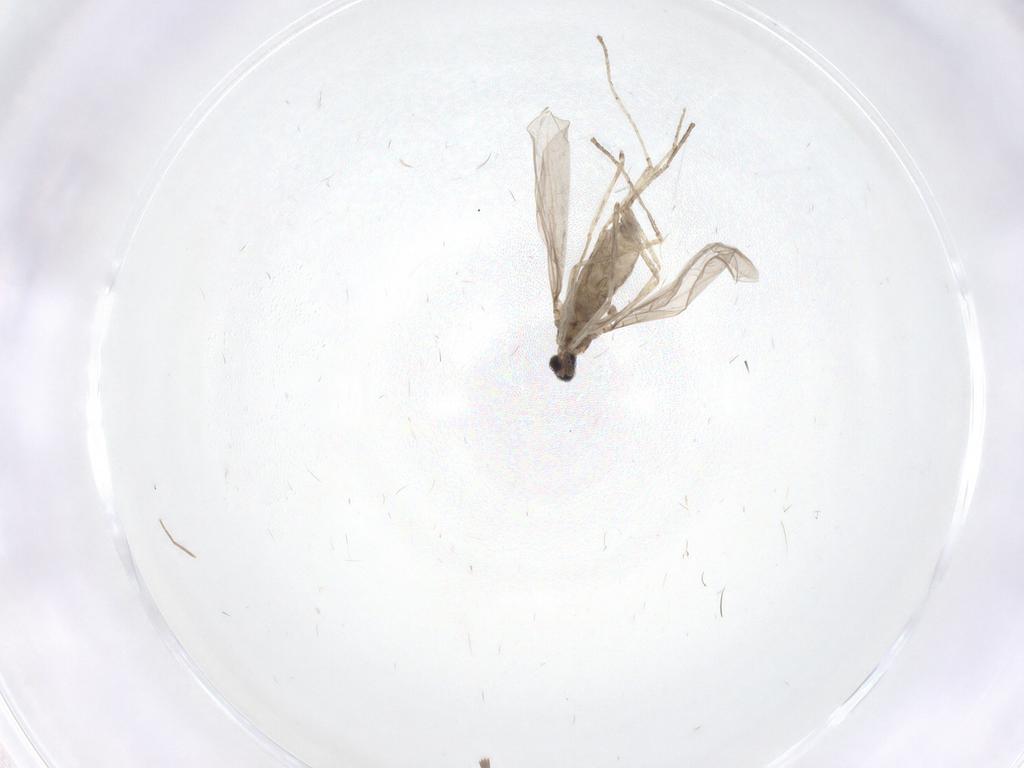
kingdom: Animalia
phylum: Arthropoda
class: Insecta
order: Diptera
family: Cecidomyiidae
